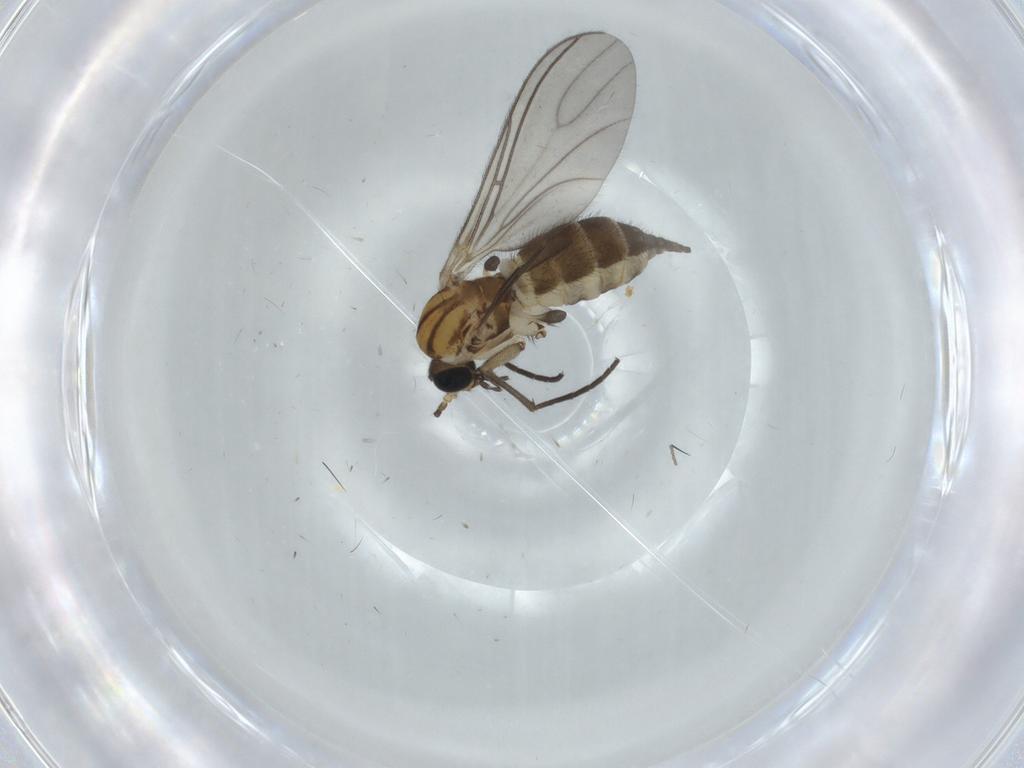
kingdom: Animalia
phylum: Arthropoda
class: Insecta
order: Diptera
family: Sciaridae
